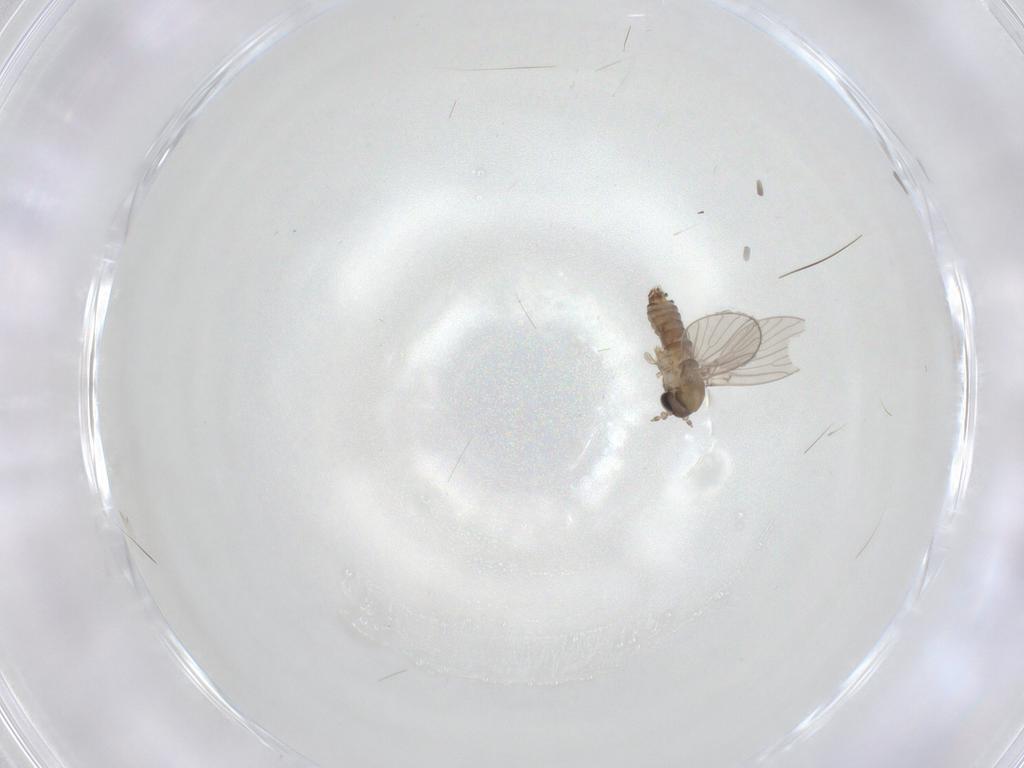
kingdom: Animalia
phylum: Arthropoda
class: Insecta
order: Diptera
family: Psychodidae
